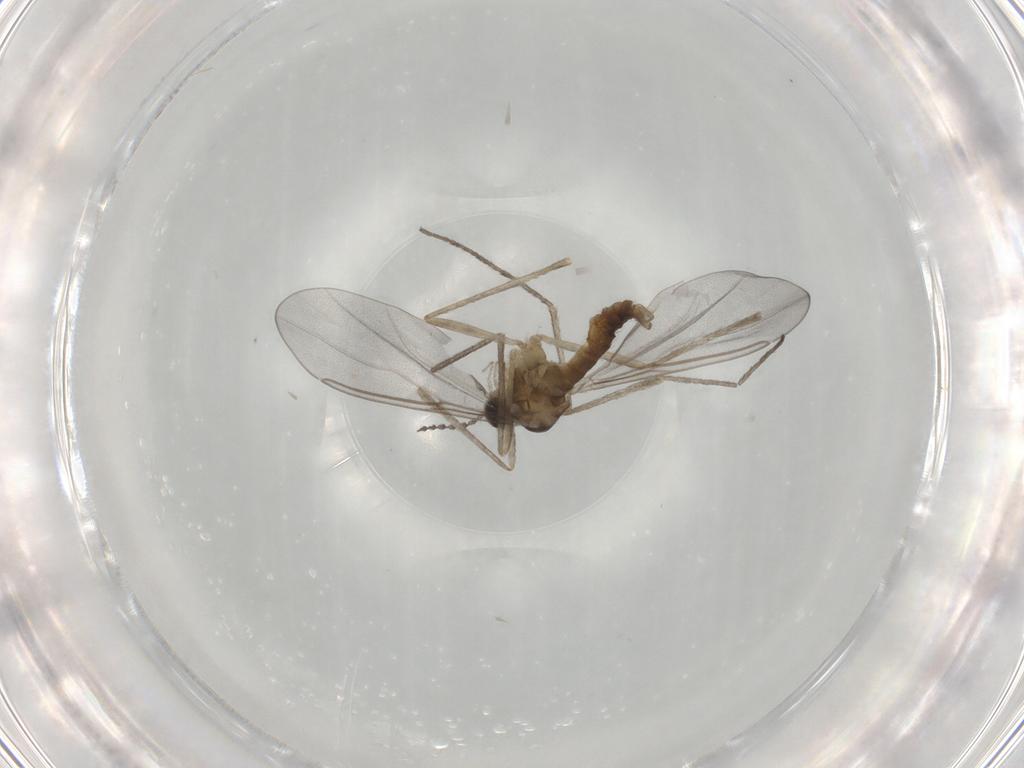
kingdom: Animalia
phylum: Arthropoda
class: Insecta
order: Diptera
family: Cecidomyiidae
